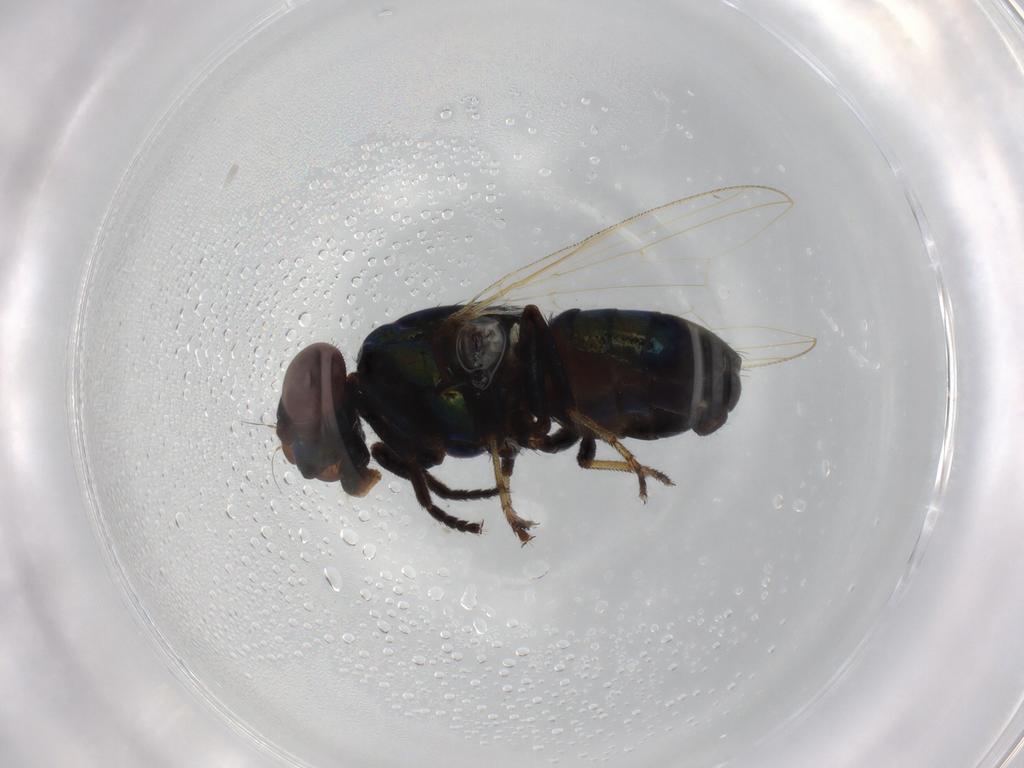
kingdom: Animalia
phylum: Arthropoda
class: Insecta
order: Diptera
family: Ulidiidae
